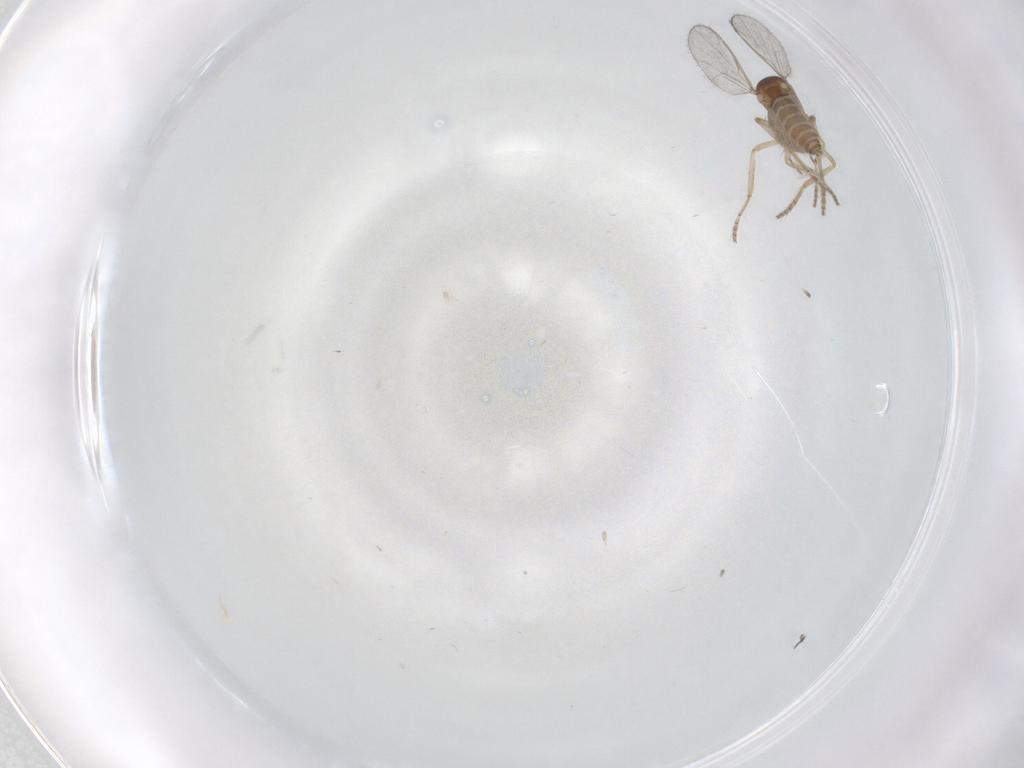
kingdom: Animalia
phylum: Arthropoda
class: Insecta
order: Diptera
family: Ceratopogonidae
